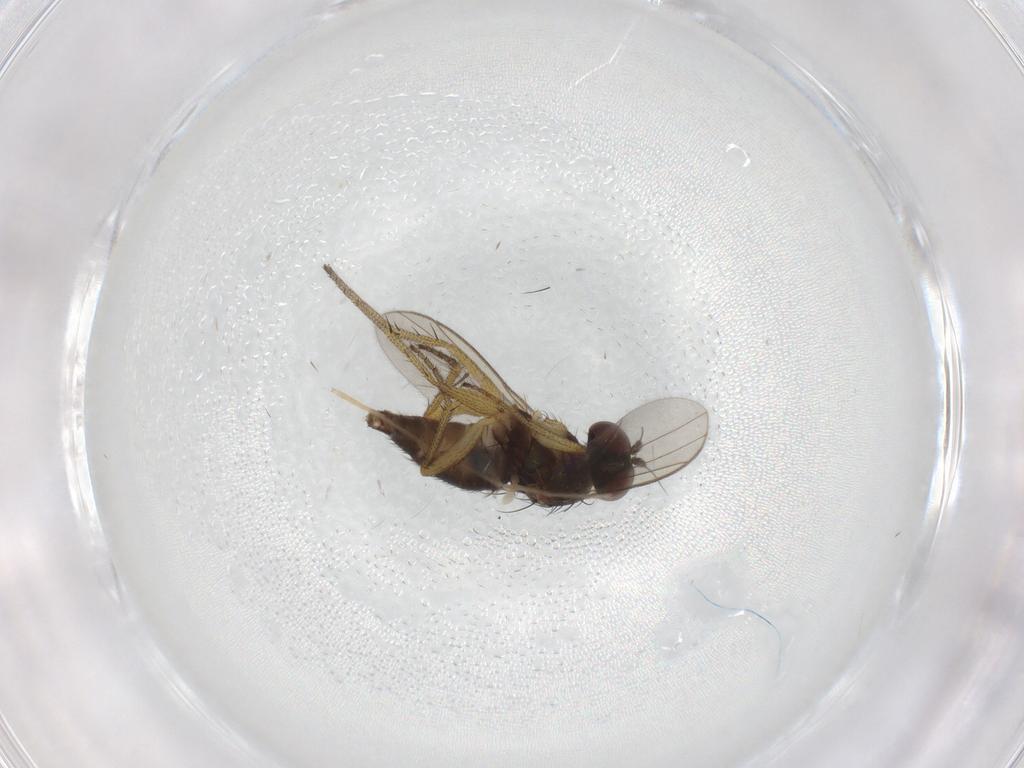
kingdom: Animalia
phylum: Arthropoda
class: Insecta
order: Diptera
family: Chironomidae
